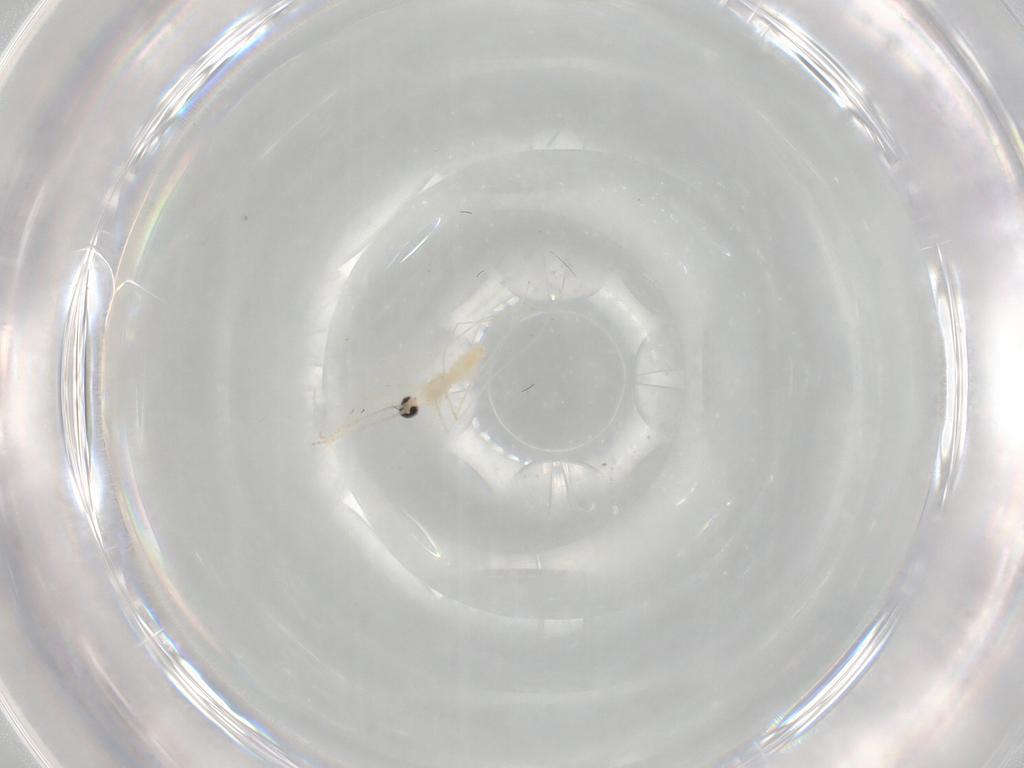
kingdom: Animalia
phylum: Arthropoda
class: Insecta
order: Diptera
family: Cecidomyiidae
